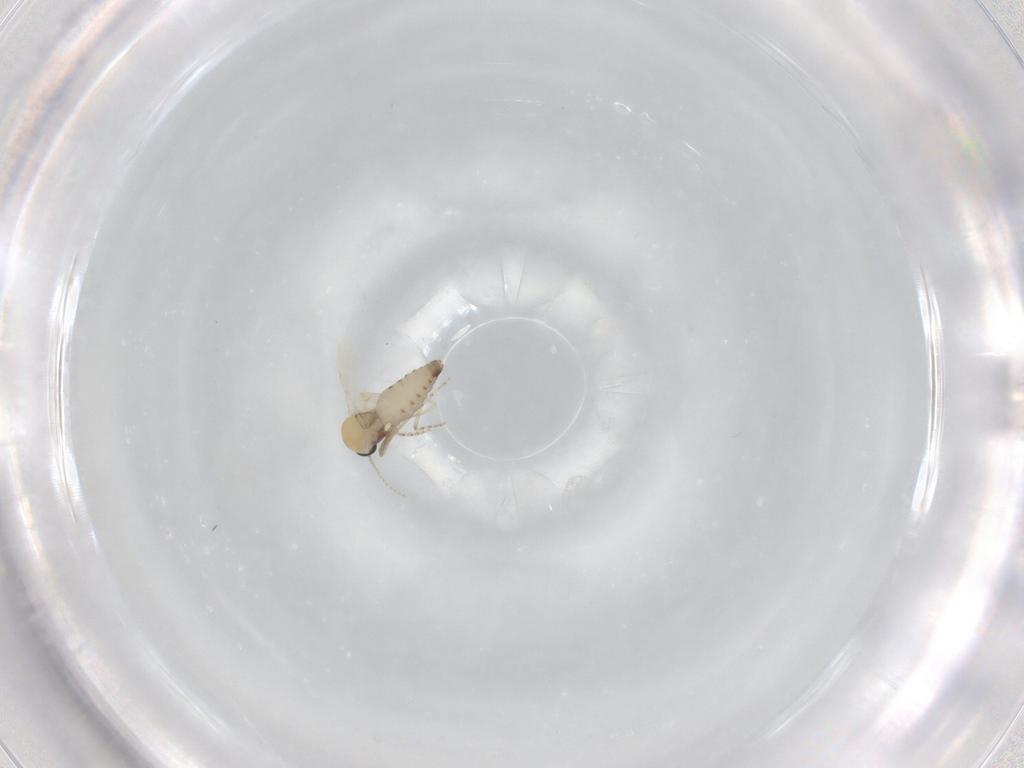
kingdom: Animalia
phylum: Arthropoda
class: Insecta
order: Diptera
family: Ceratopogonidae
